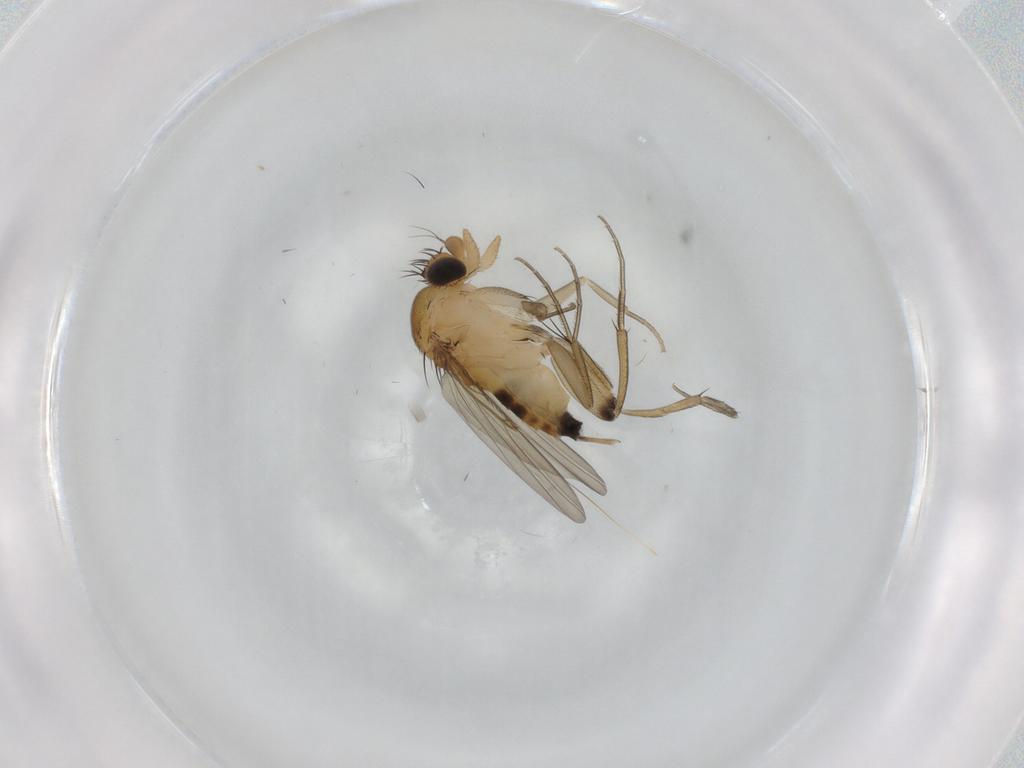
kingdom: Animalia
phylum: Arthropoda
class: Insecta
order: Diptera
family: Phoridae
